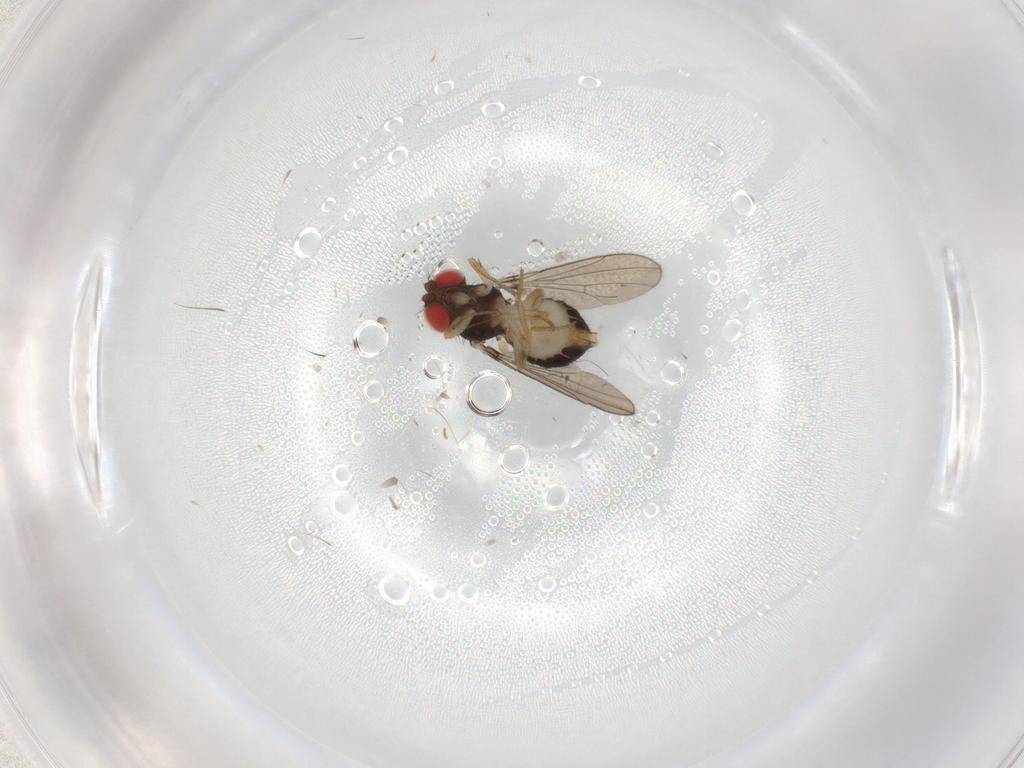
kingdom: Animalia
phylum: Arthropoda
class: Insecta
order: Diptera
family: Drosophilidae
